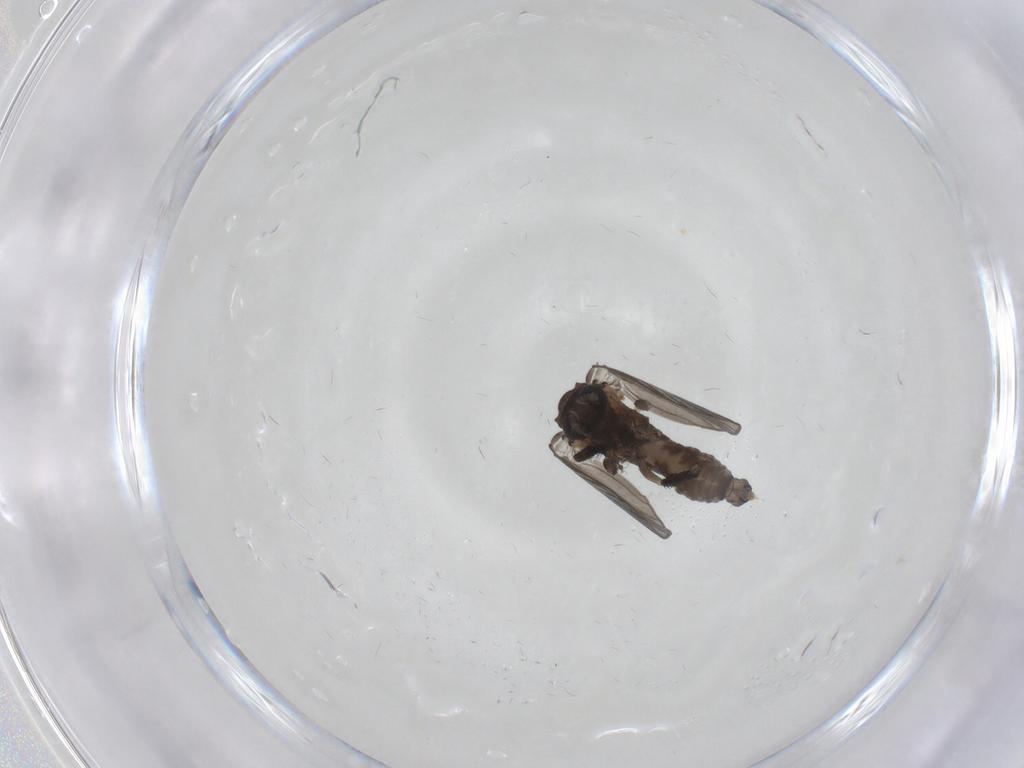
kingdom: Animalia
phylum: Arthropoda
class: Insecta
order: Diptera
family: Psychodidae
